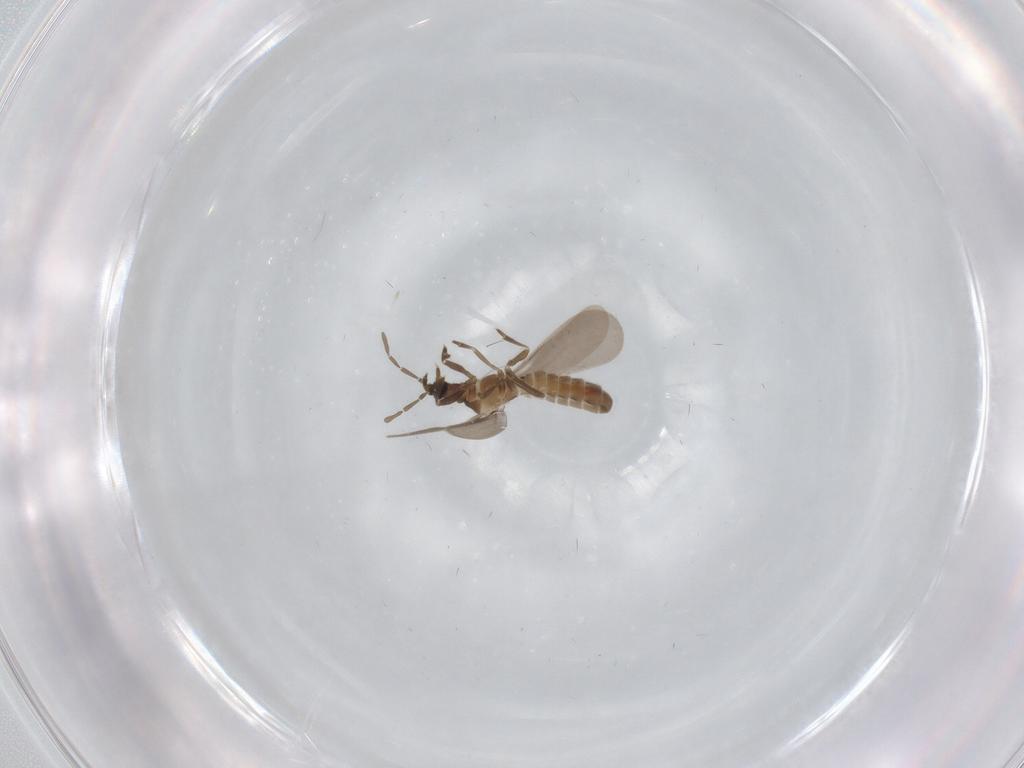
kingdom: Animalia
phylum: Arthropoda
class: Insecta
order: Hemiptera
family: Enicocephalidae
